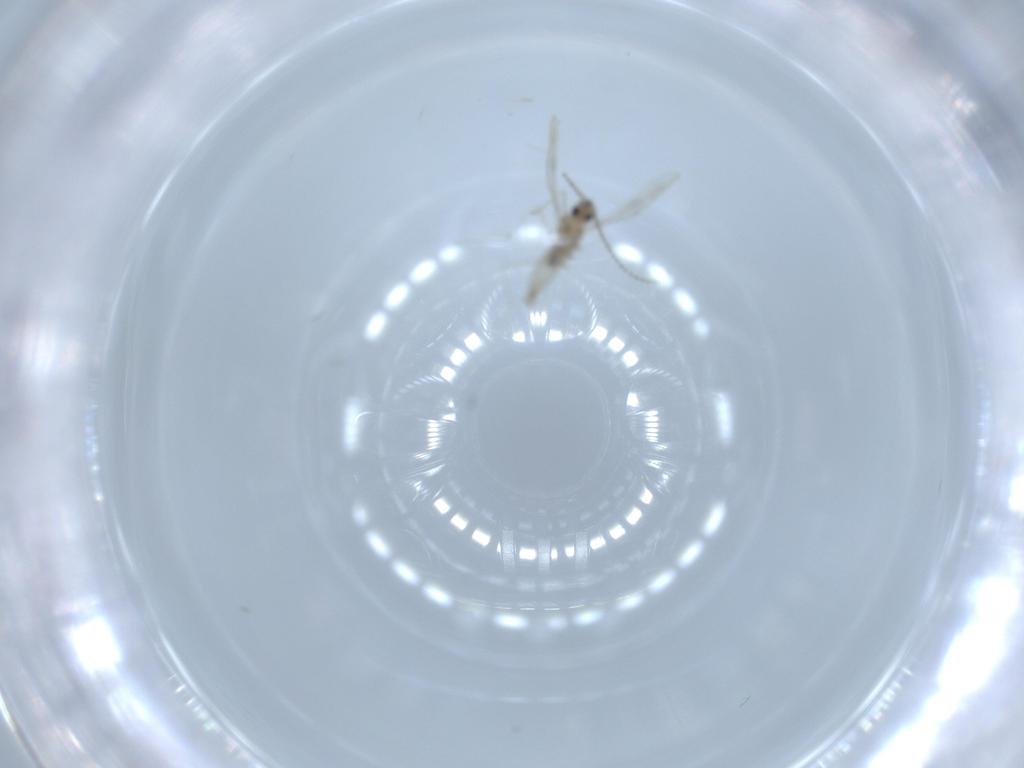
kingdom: Animalia
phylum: Arthropoda
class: Insecta
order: Diptera
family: Cecidomyiidae
